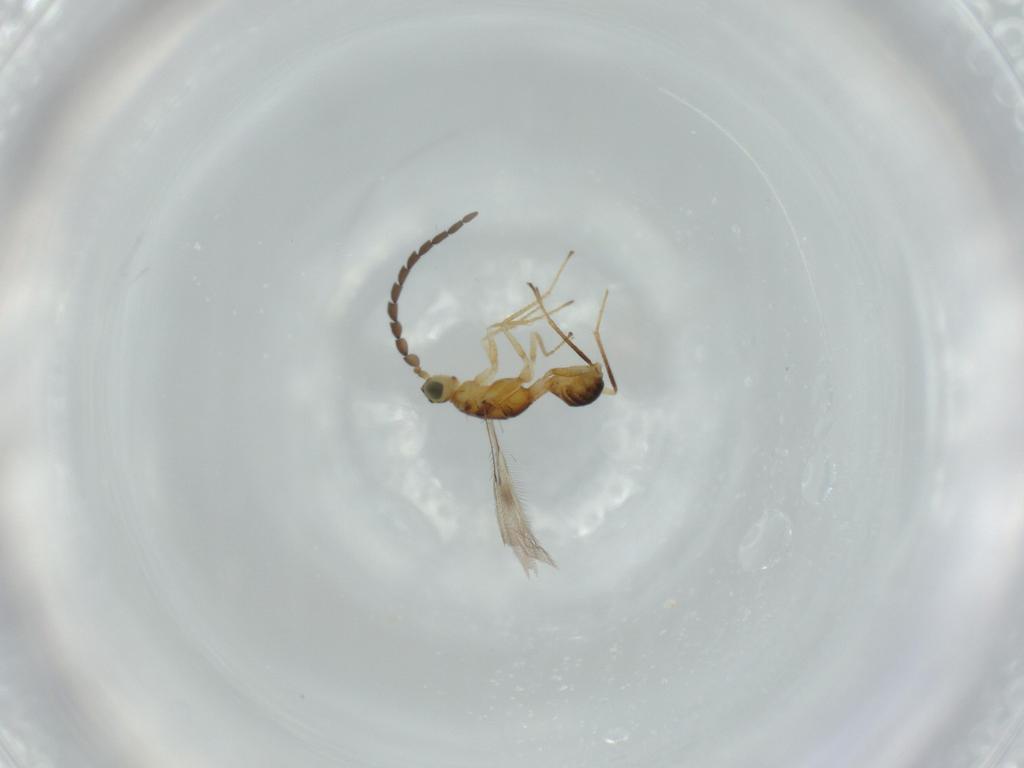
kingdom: Animalia
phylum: Arthropoda
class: Insecta
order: Hymenoptera
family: Mymaridae
